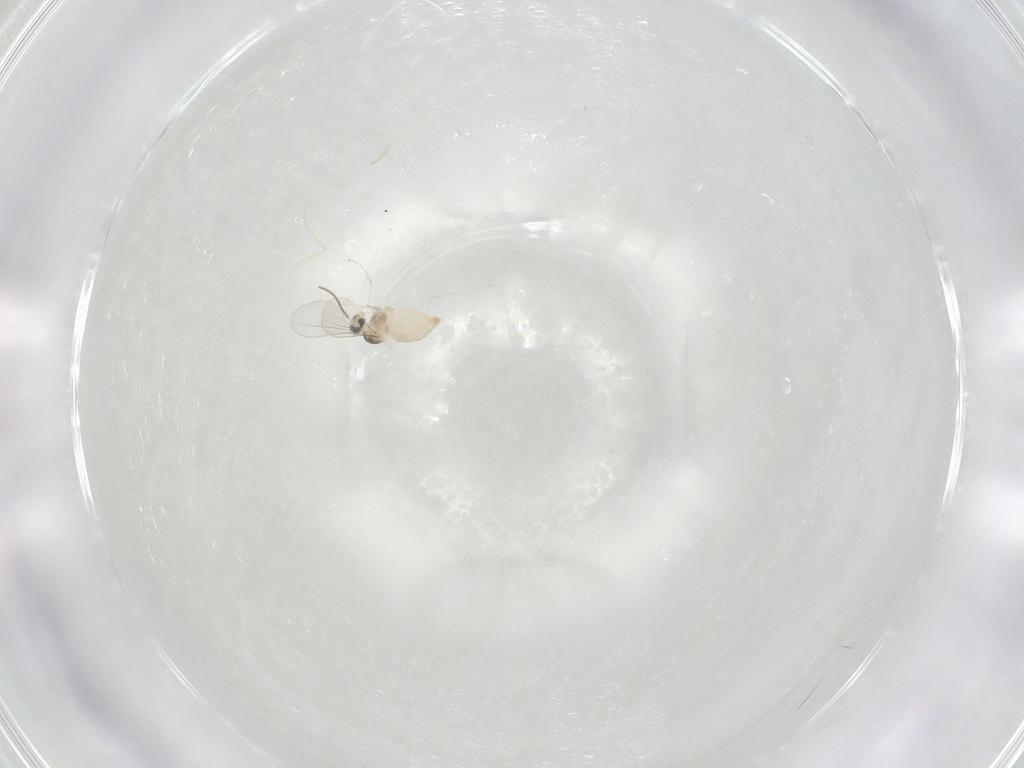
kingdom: Animalia
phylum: Arthropoda
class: Insecta
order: Diptera
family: Cecidomyiidae
